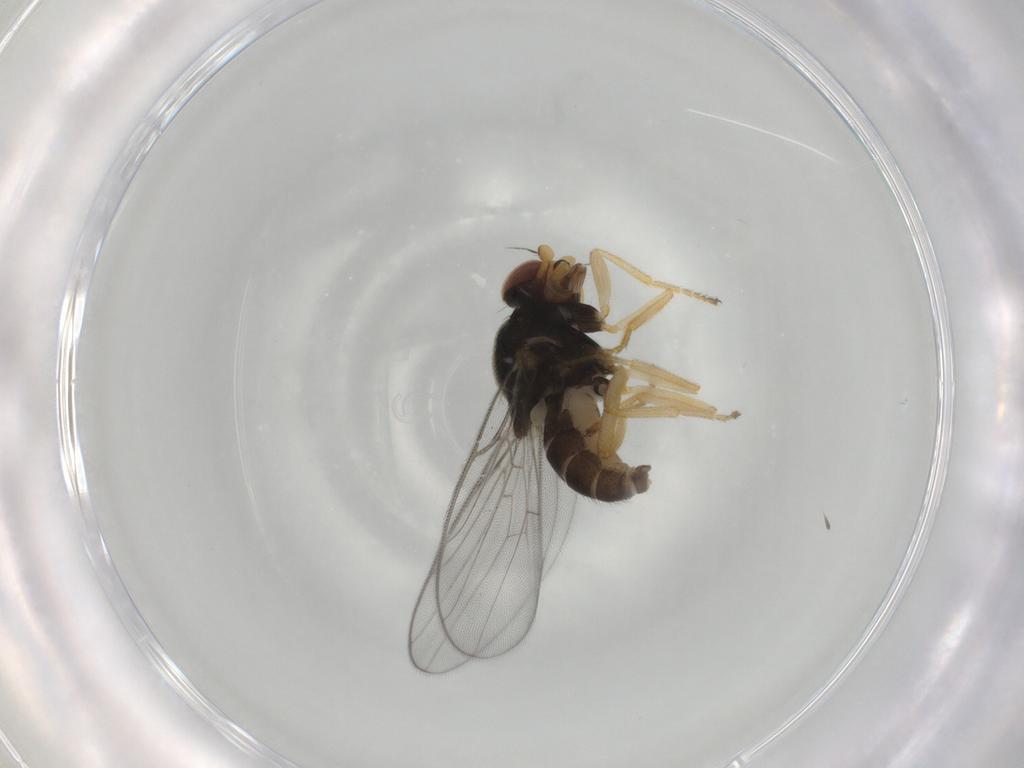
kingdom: Animalia
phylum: Arthropoda
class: Insecta
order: Diptera
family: Chloropidae
